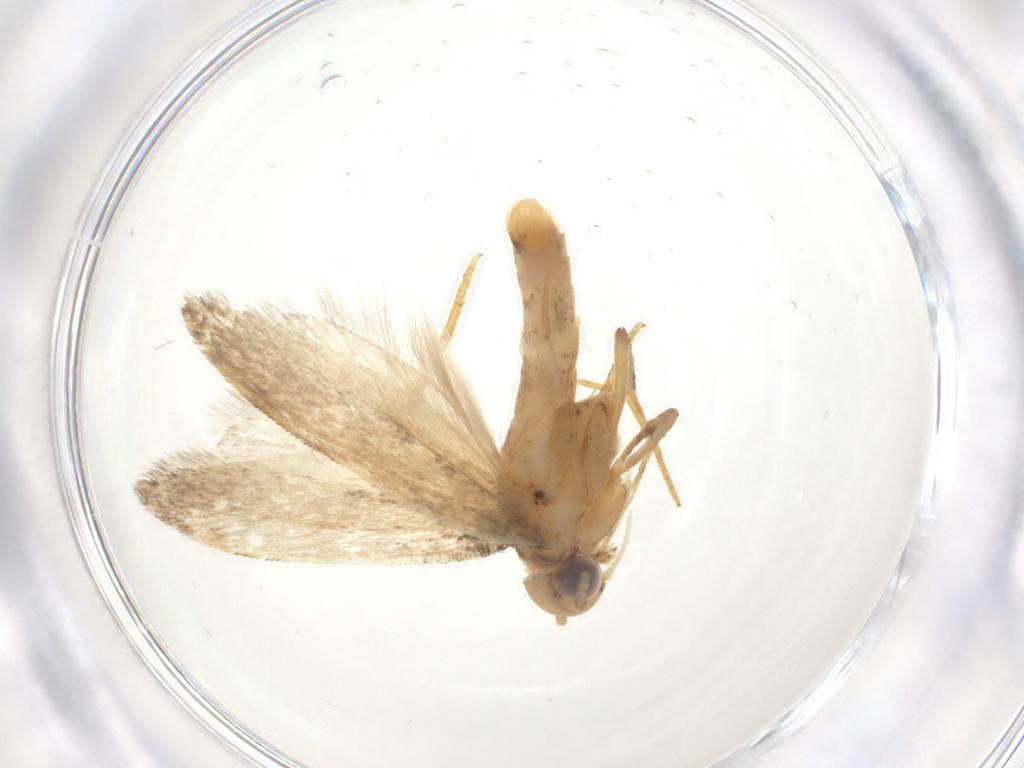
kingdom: Animalia
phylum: Arthropoda
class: Insecta
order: Lepidoptera
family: Gelechiidae
